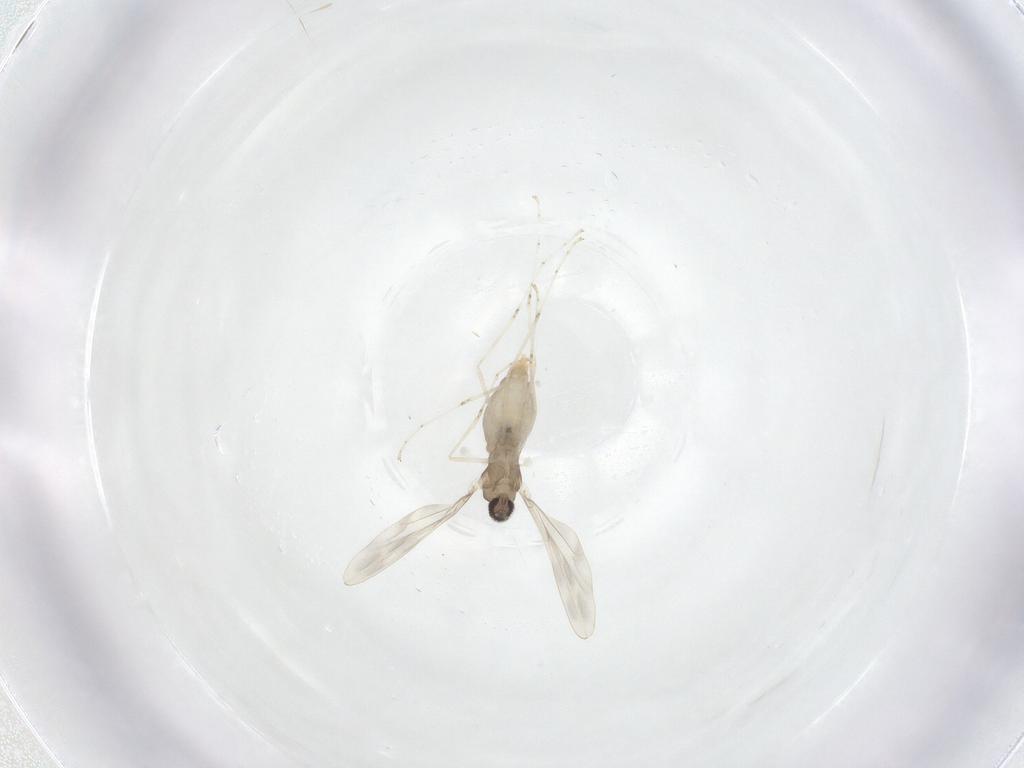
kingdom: Animalia
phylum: Arthropoda
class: Insecta
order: Diptera
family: Cecidomyiidae
